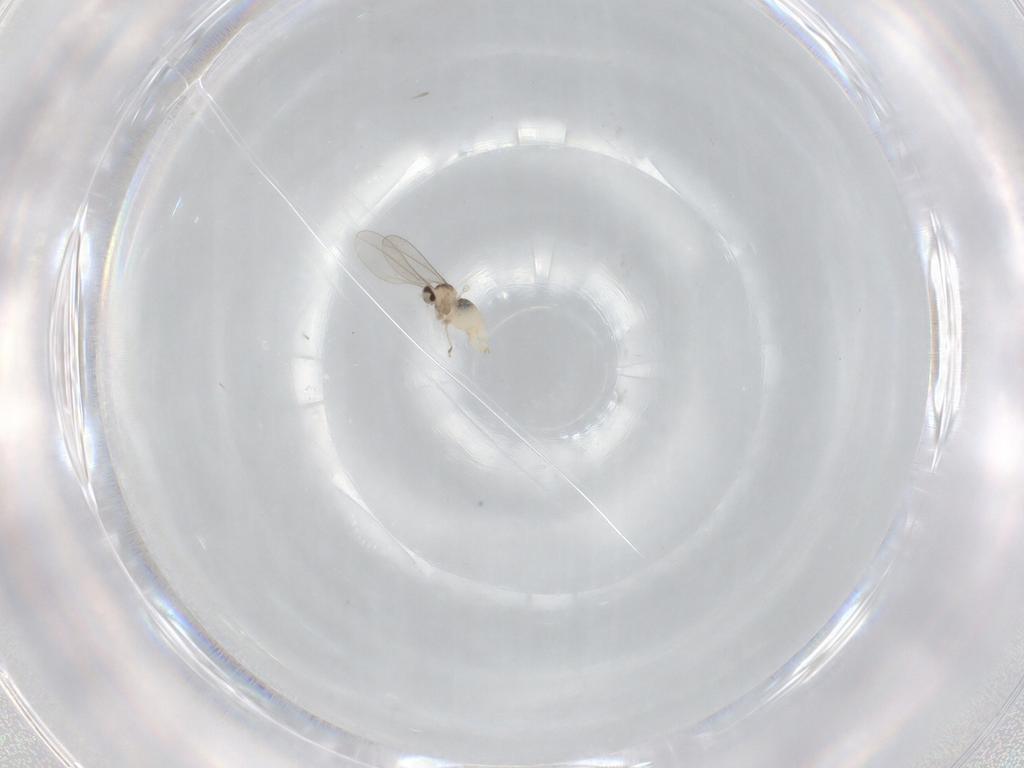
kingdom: Animalia
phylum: Arthropoda
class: Insecta
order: Diptera
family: Cecidomyiidae
